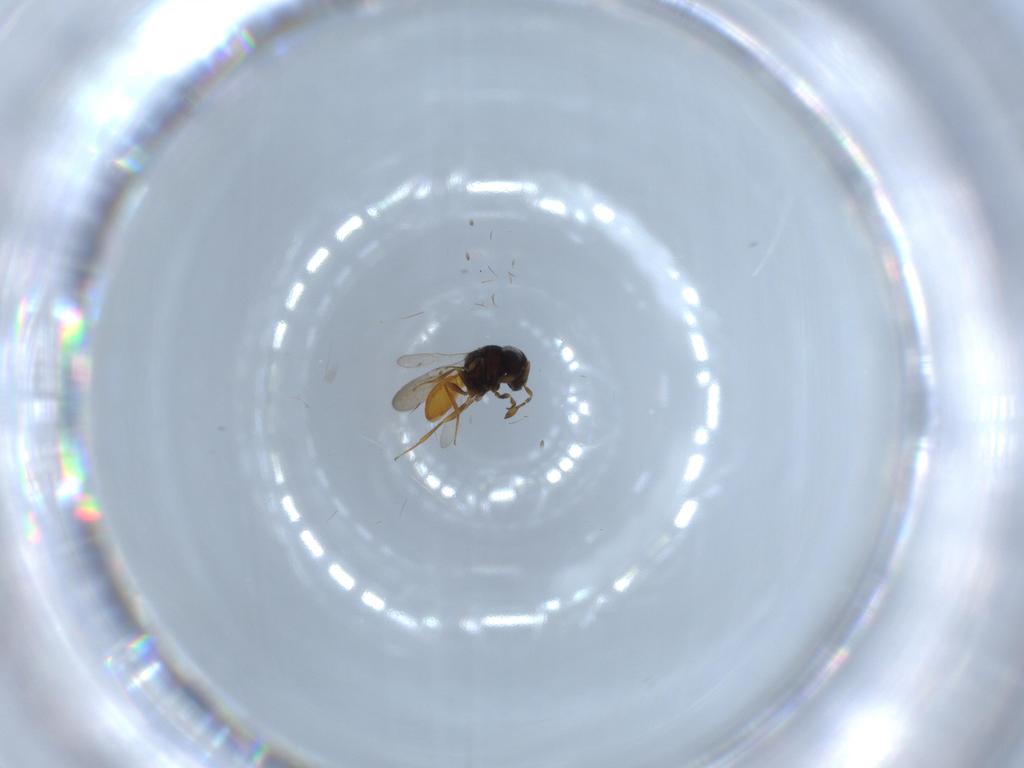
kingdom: Animalia
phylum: Arthropoda
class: Insecta
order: Hymenoptera
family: Scelionidae
